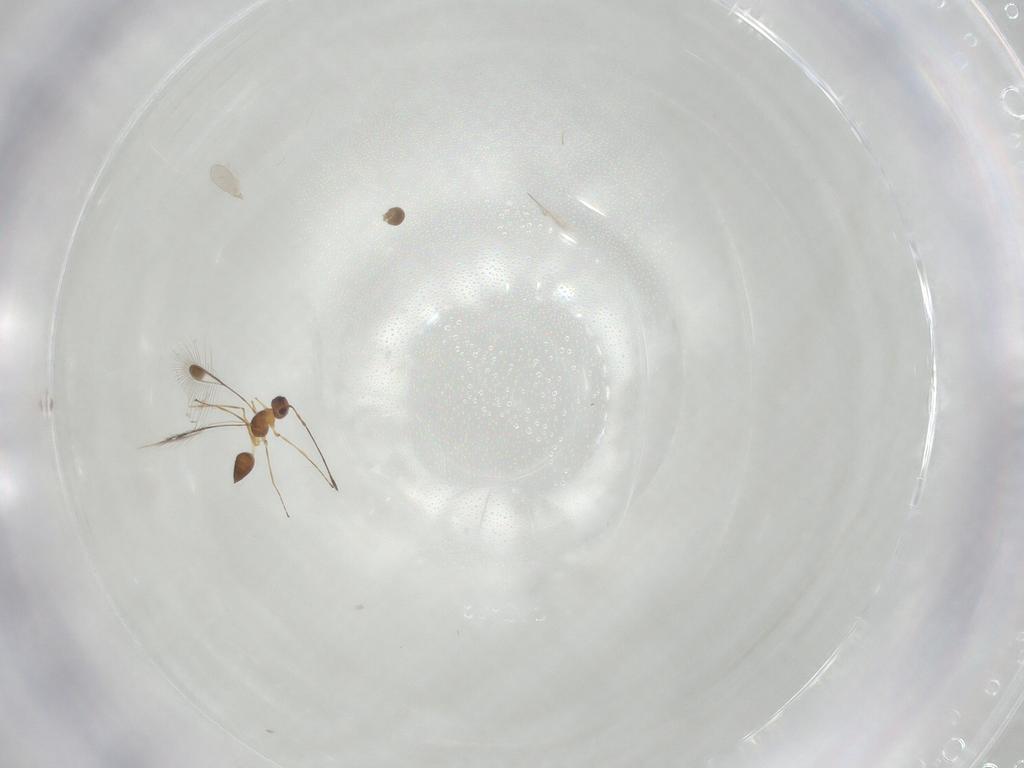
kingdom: Animalia
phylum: Arthropoda
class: Insecta
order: Hymenoptera
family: Mymaridae
